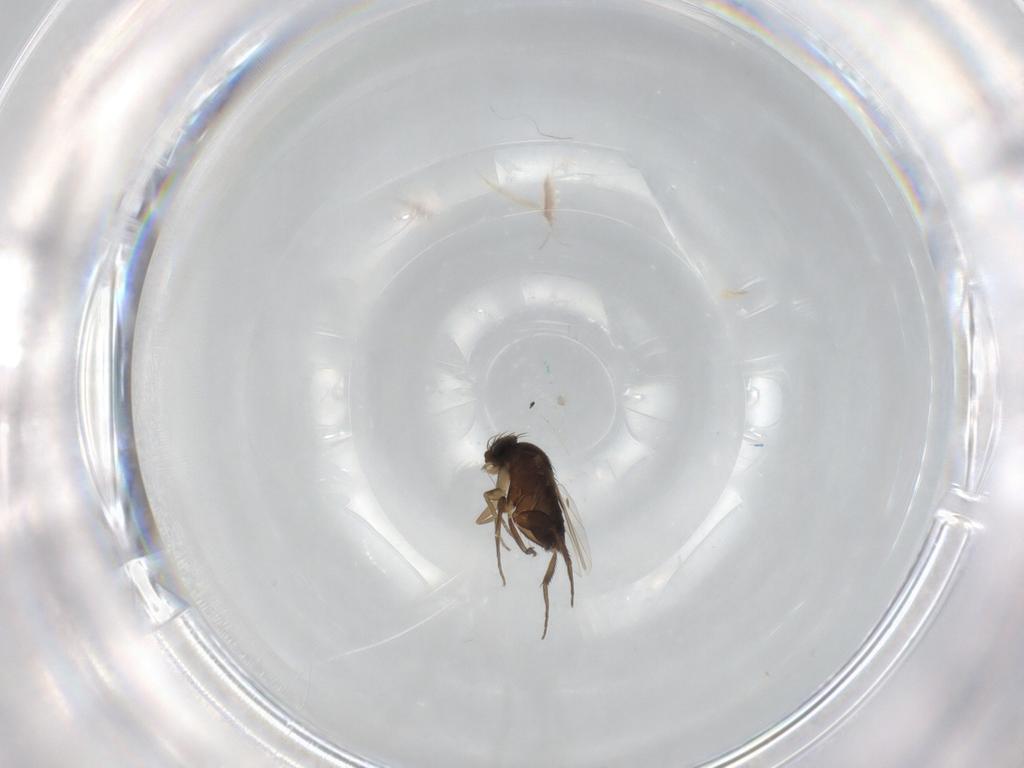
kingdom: Animalia
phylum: Arthropoda
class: Insecta
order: Diptera
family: Phoridae
